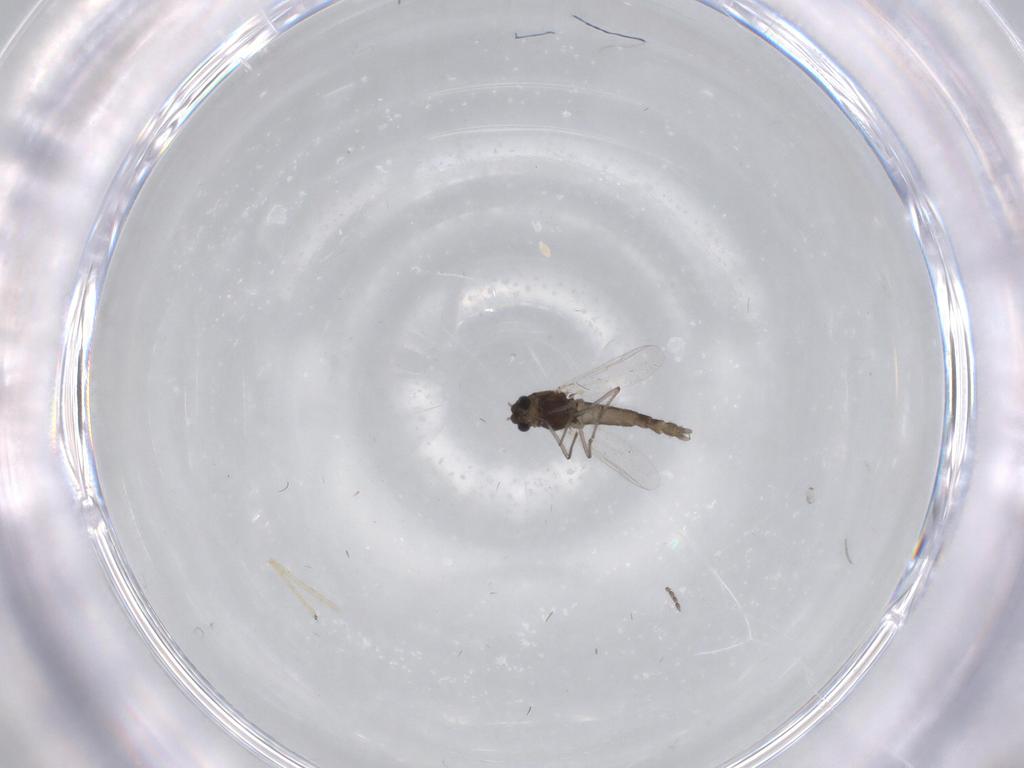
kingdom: Animalia
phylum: Arthropoda
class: Insecta
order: Diptera
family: Chironomidae
